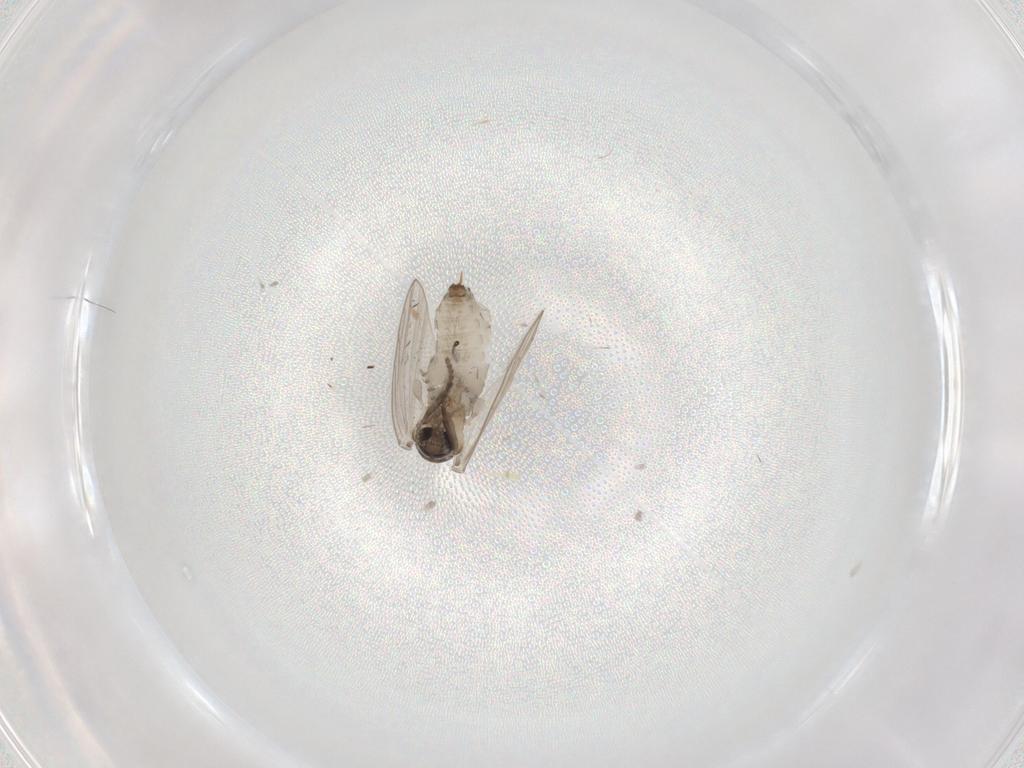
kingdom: Animalia
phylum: Arthropoda
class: Insecta
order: Diptera
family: Psychodidae
